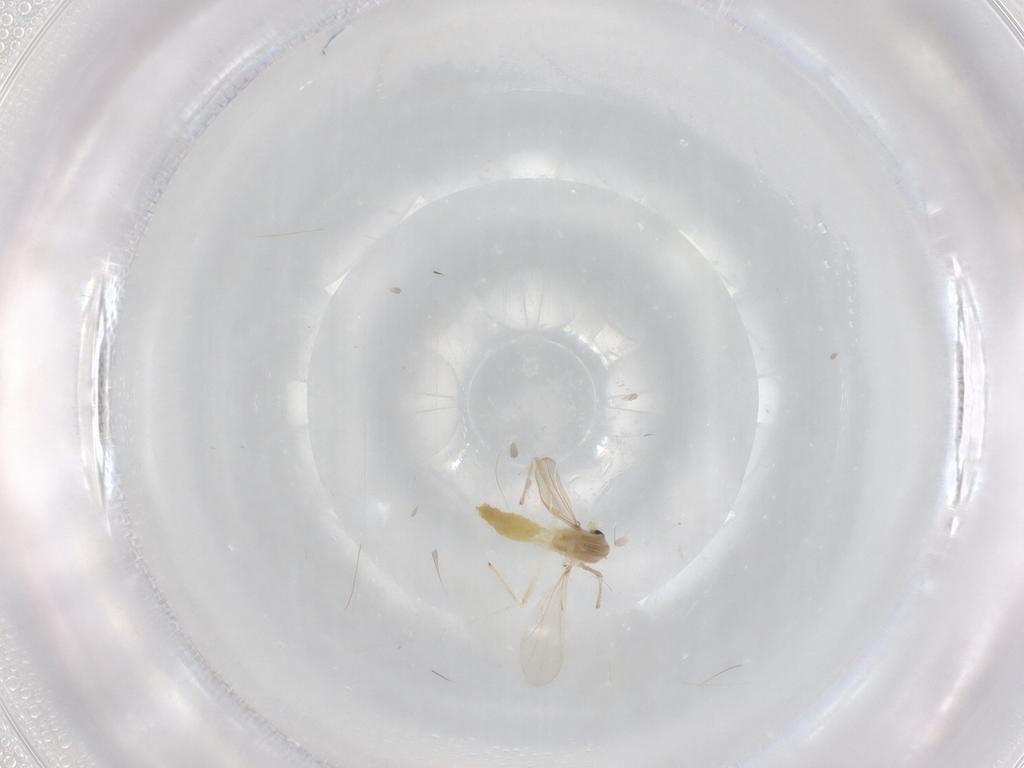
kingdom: Animalia
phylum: Arthropoda
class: Insecta
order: Diptera
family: Chironomidae
